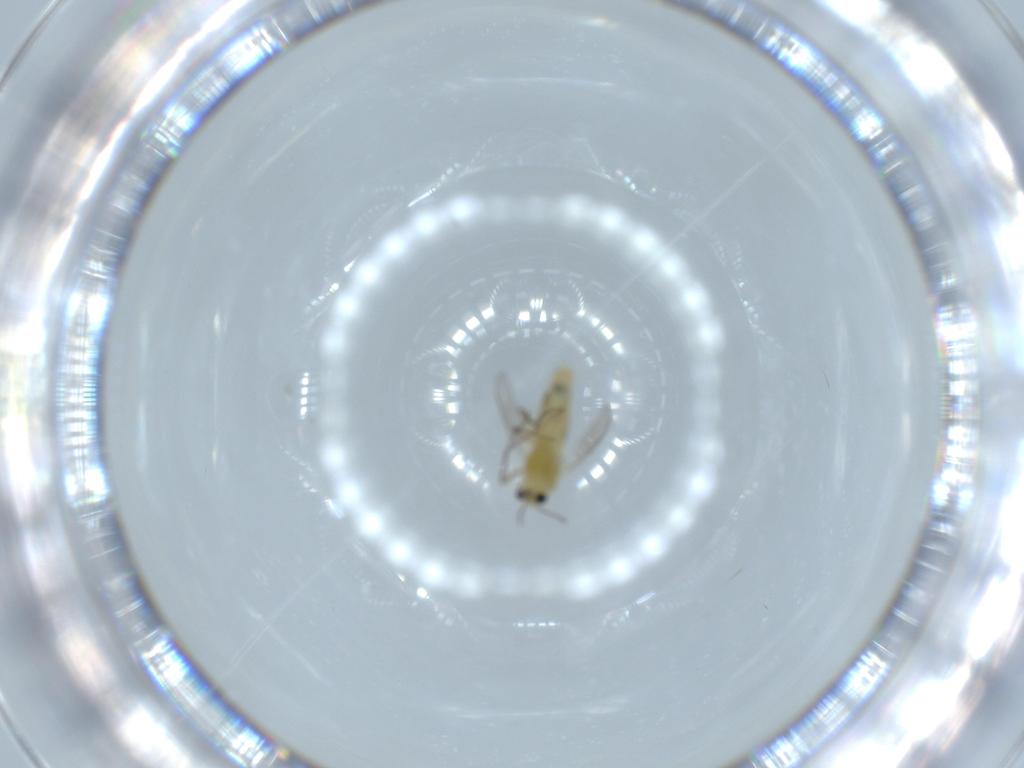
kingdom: Animalia
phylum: Arthropoda
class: Insecta
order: Diptera
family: Chironomidae
